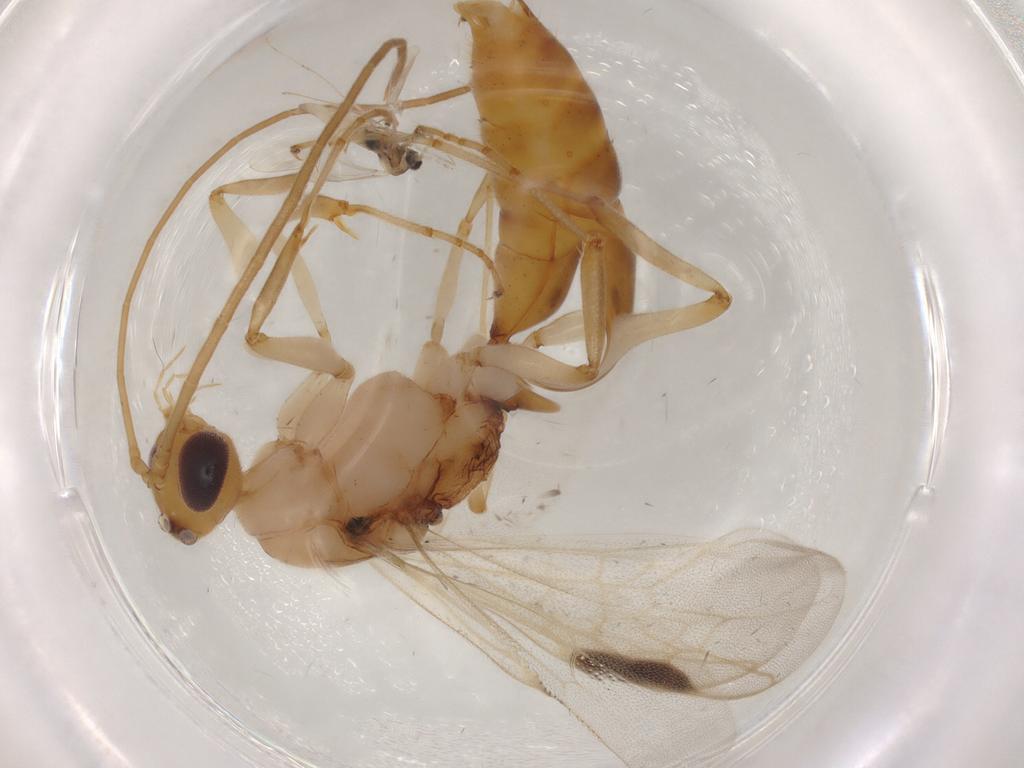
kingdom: Animalia
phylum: Arthropoda
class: Insecta
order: Hymenoptera
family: Formicidae
